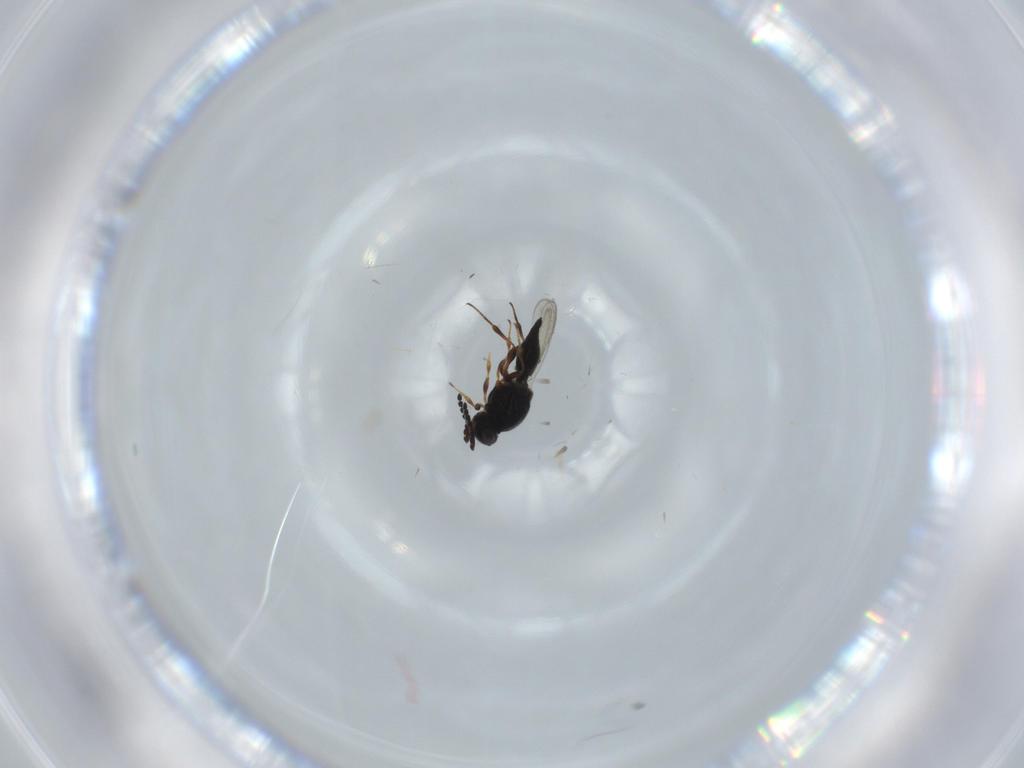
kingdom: Animalia
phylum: Arthropoda
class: Insecta
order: Hymenoptera
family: Platygastridae
